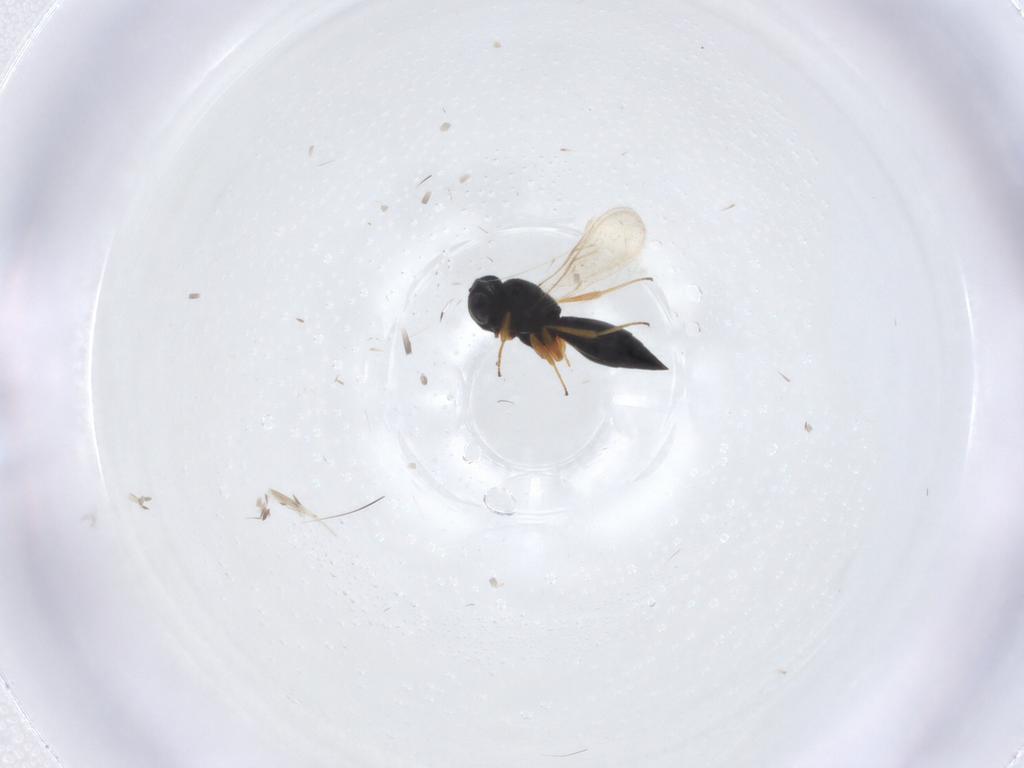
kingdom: Animalia
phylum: Arthropoda
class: Insecta
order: Hymenoptera
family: Scelionidae
